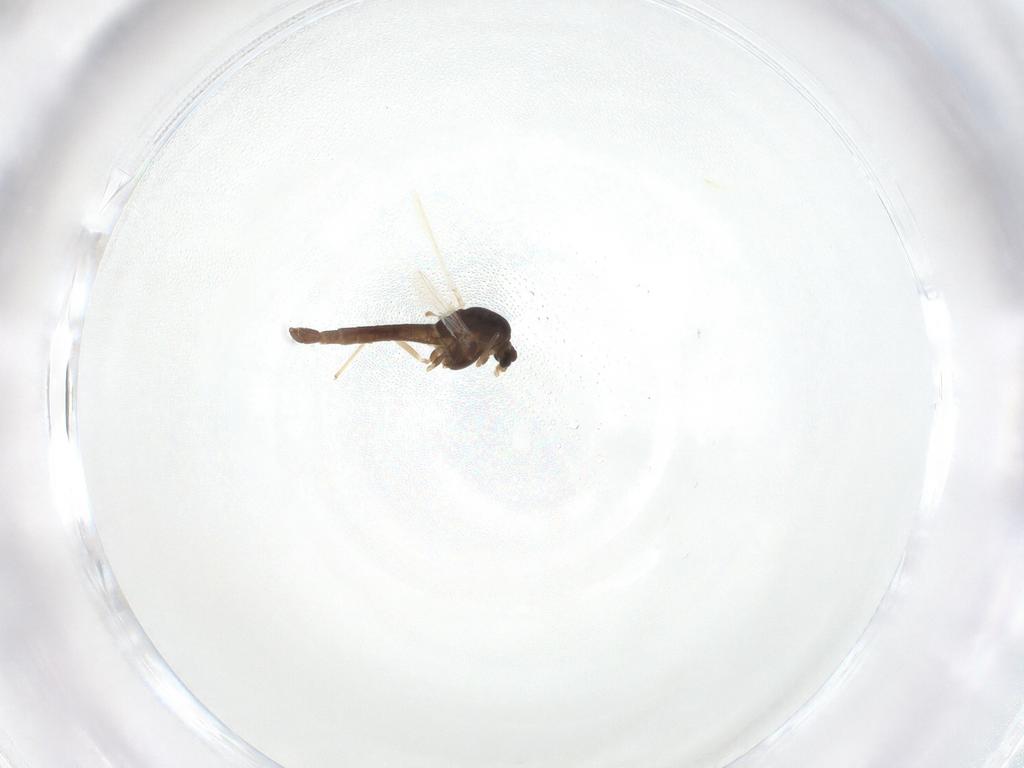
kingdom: Animalia
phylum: Arthropoda
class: Insecta
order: Diptera
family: Chironomidae
